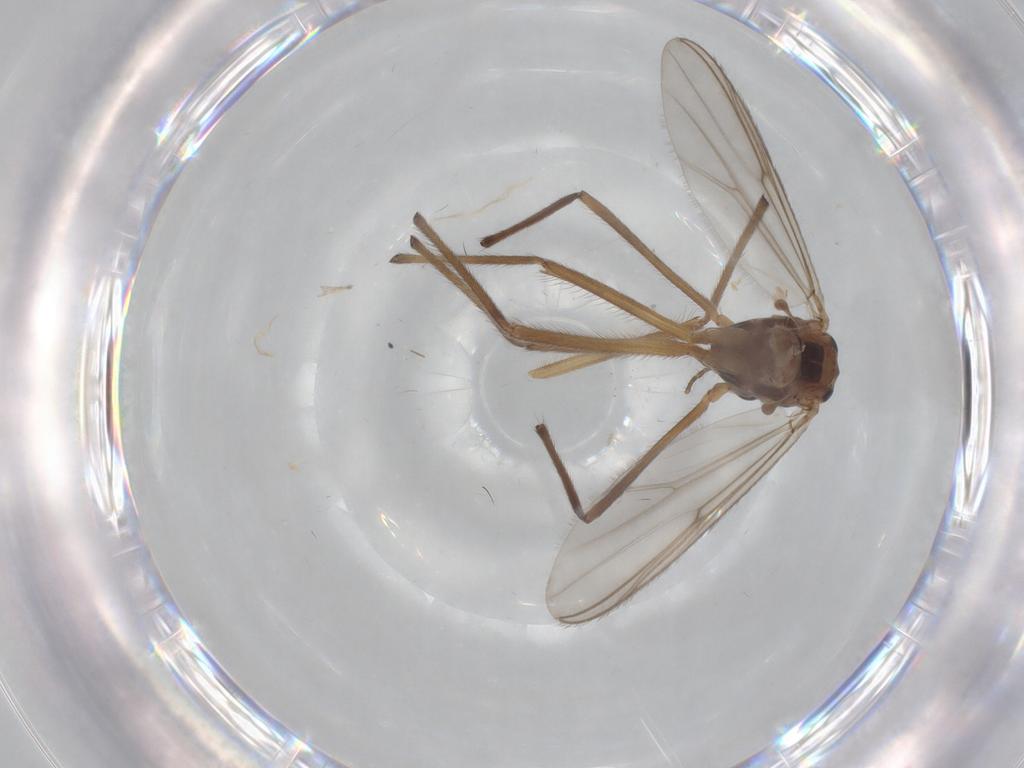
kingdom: Animalia
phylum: Arthropoda
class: Insecta
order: Diptera
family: Chironomidae
